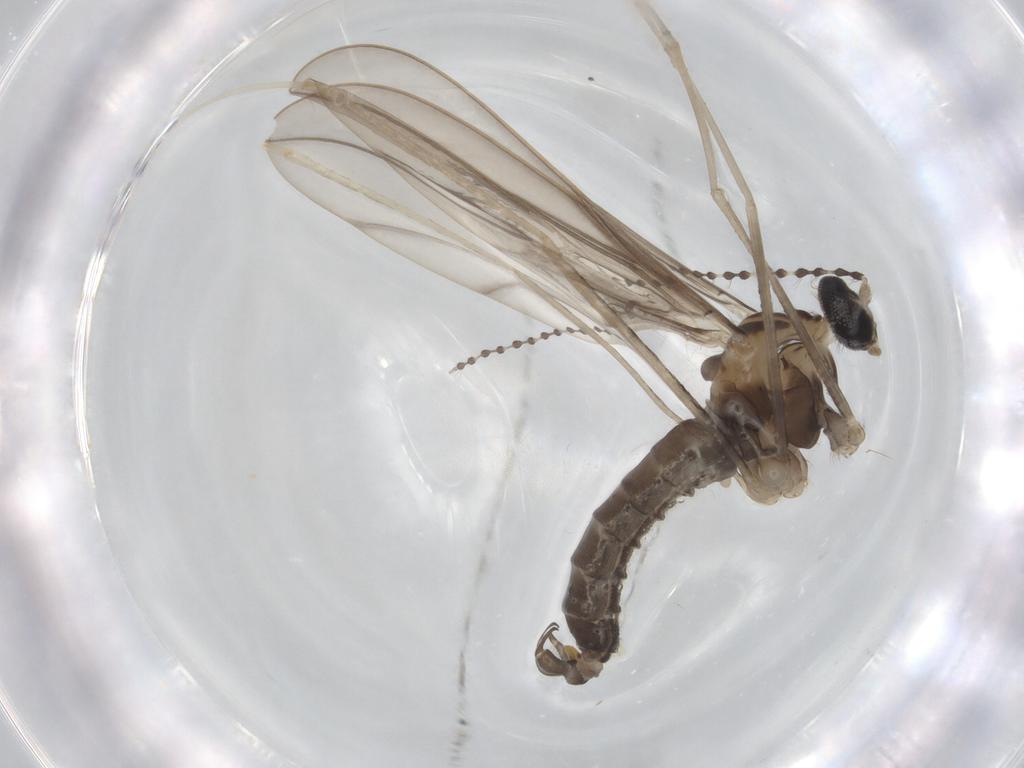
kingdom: Animalia
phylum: Arthropoda
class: Insecta
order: Diptera
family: Cecidomyiidae
